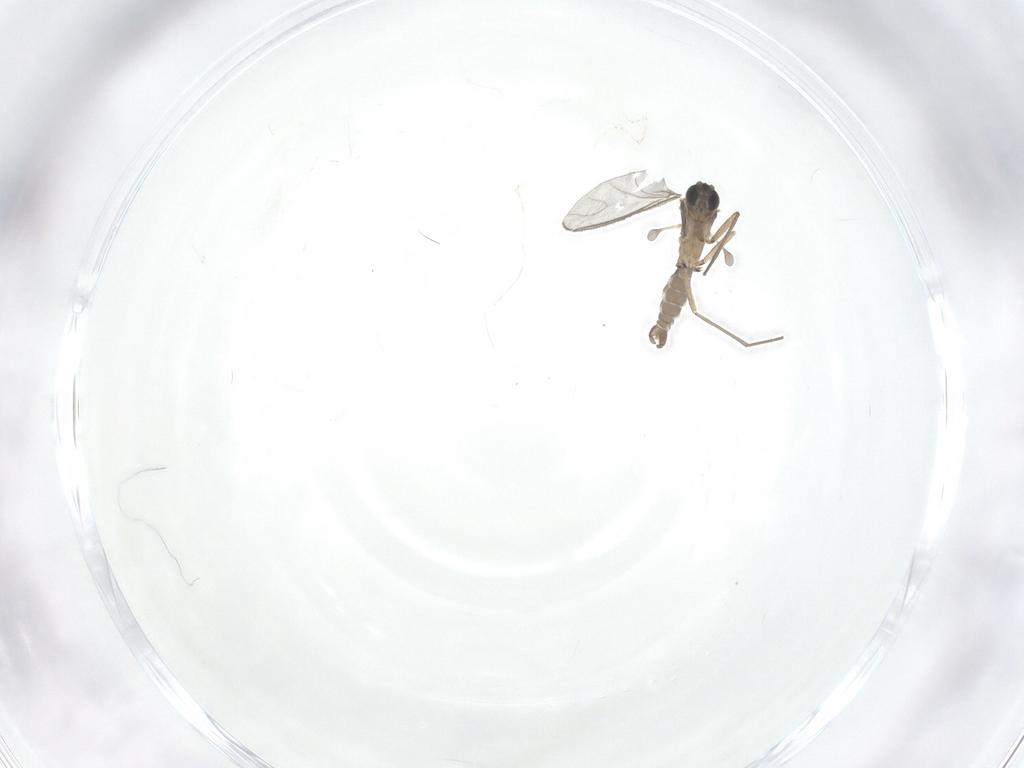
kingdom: Animalia
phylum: Arthropoda
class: Insecta
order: Diptera
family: Sciaridae
